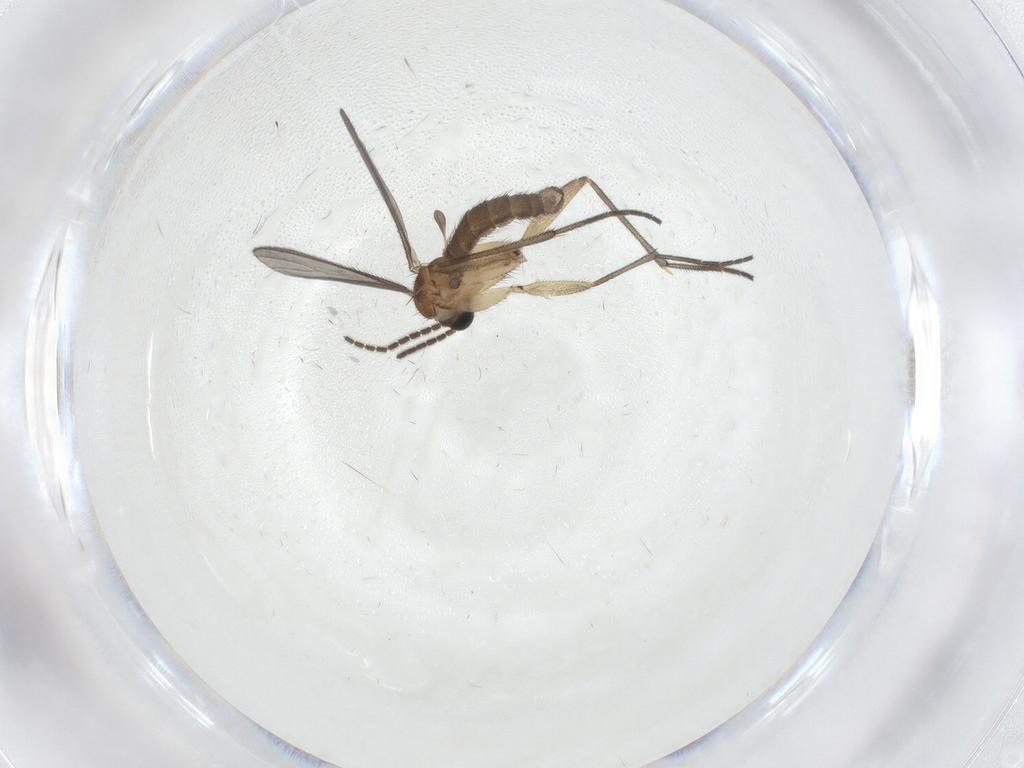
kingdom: Animalia
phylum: Arthropoda
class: Insecta
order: Diptera
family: Sciaridae
